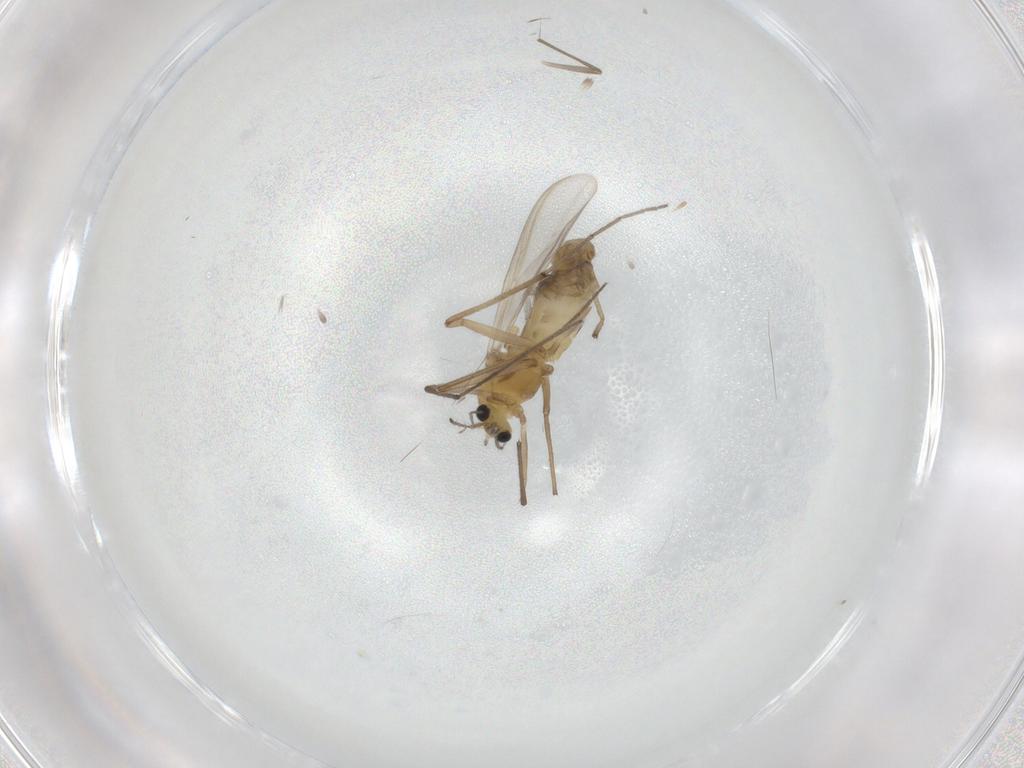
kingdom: Animalia
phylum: Arthropoda
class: Insecta
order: Diptera
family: Chironomidae
